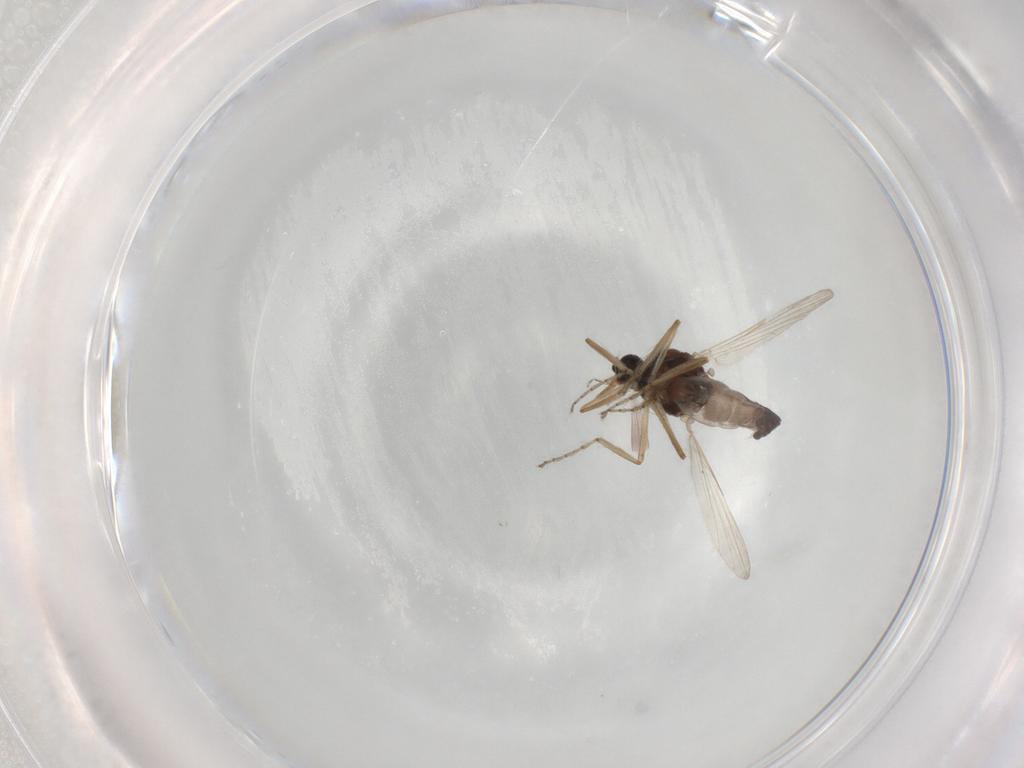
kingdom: Animalia
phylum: Arthropoda
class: Insecta
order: Diptera
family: Ceratopogonidae
